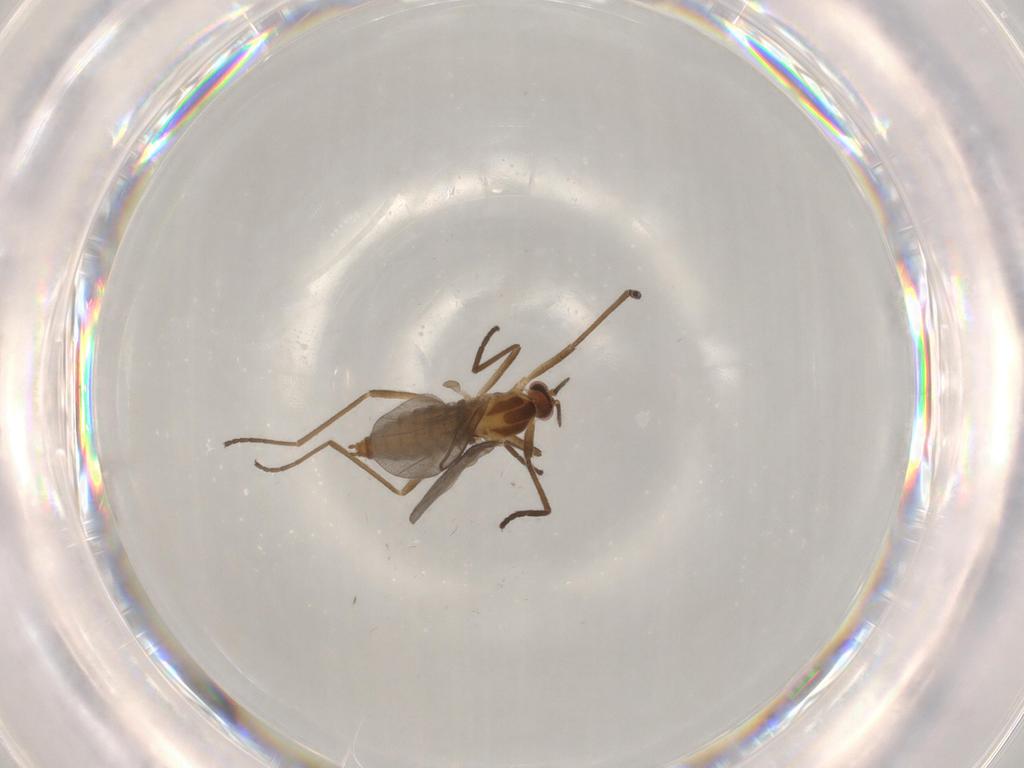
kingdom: Animalia
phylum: Arthropoda
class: Insecta
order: Diptera
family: Cecidomyiidae
